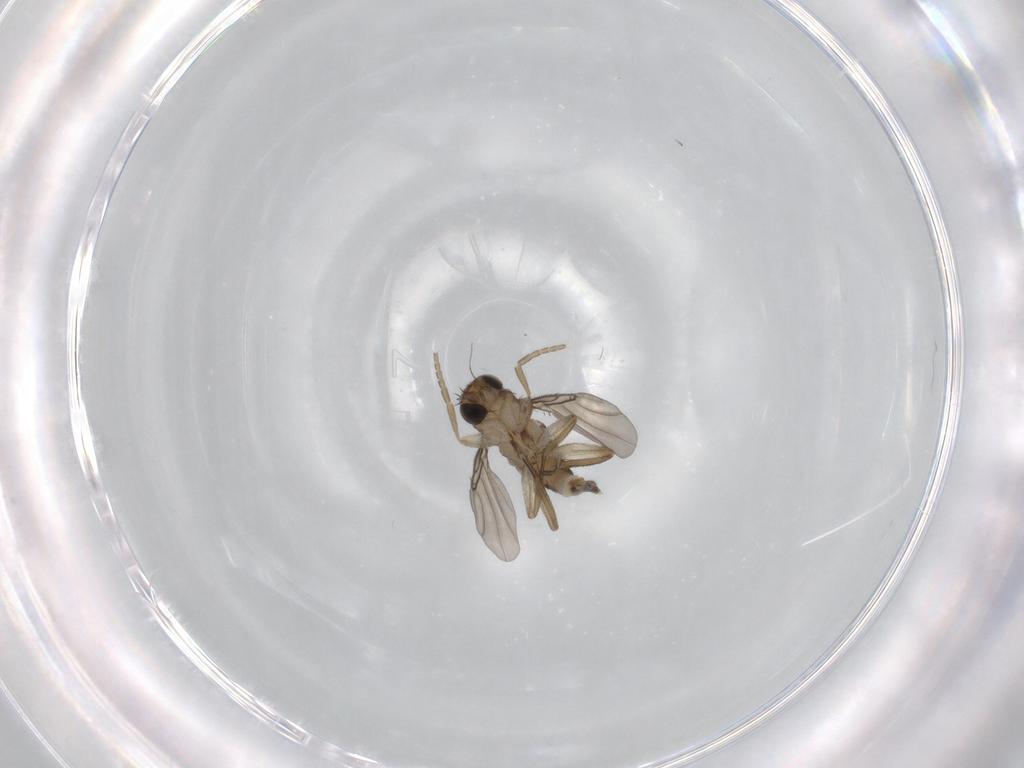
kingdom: Animalia
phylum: Arthropoda
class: Insecta
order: Diptera
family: Phoridae
